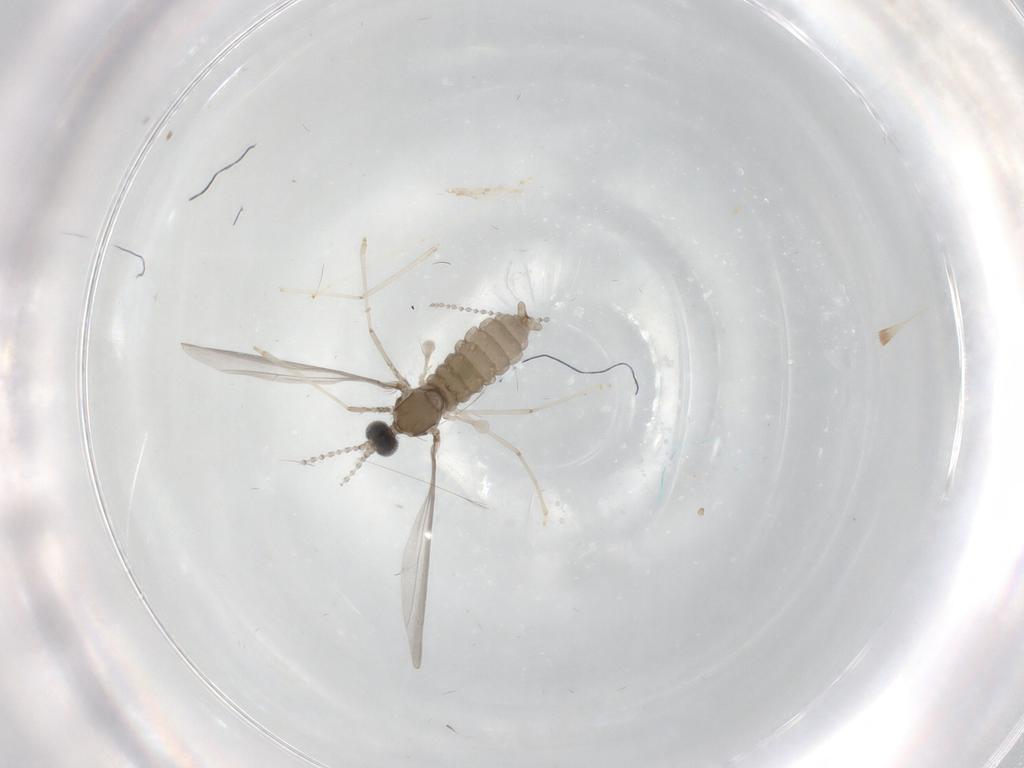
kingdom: Animalia
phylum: Arthropoda
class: Insecta
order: Diptera
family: Cecidomyiidae
